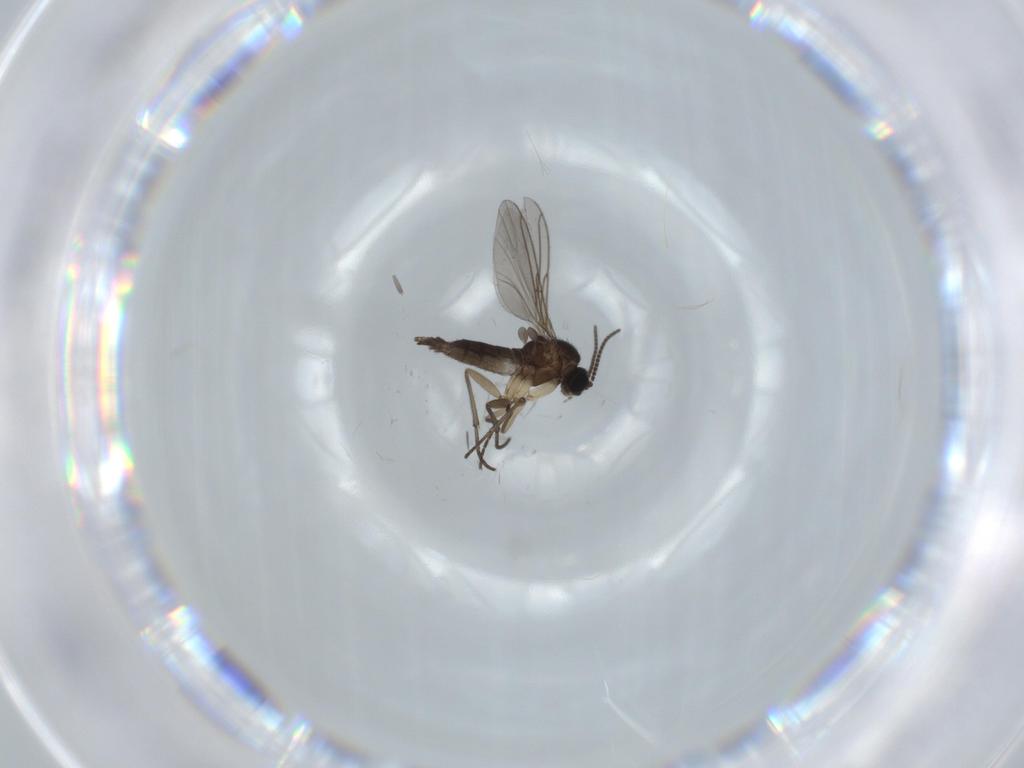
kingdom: Animalia
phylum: Arthropoda
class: Insecta
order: Diptera
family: Sciaridae
